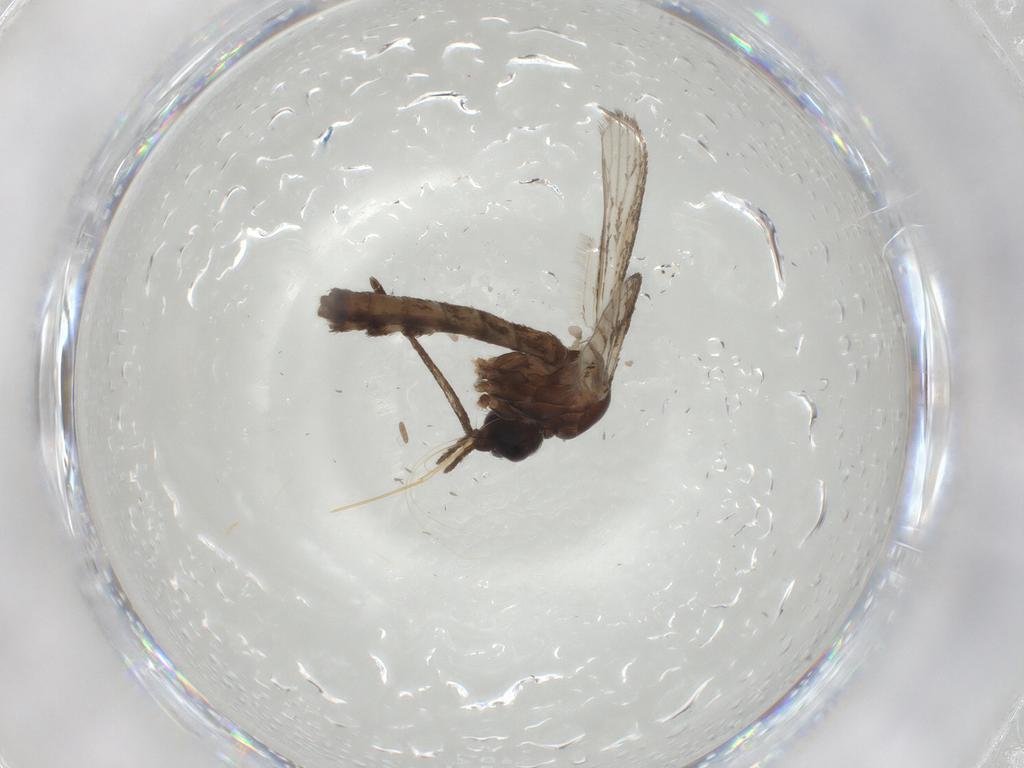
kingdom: Animalia
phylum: Arthropoda
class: Insecta
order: Diptera
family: Culicidae
